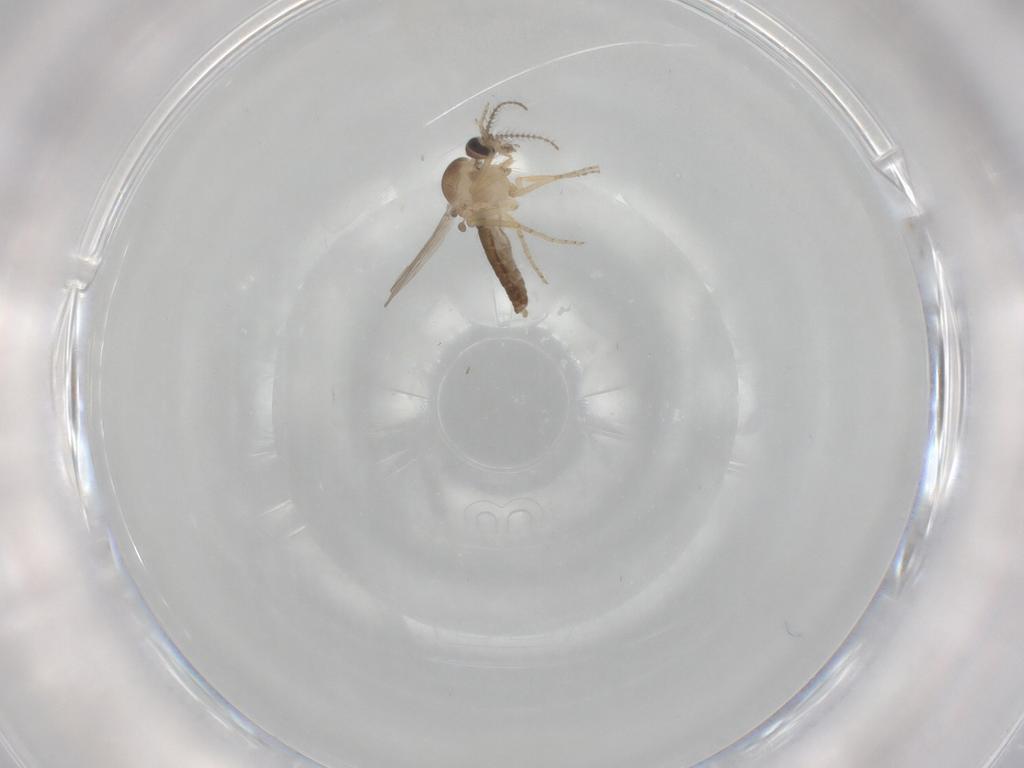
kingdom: Animalia
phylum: Arthropoda
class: Insecta
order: Diptera
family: Ceratopogonidae
